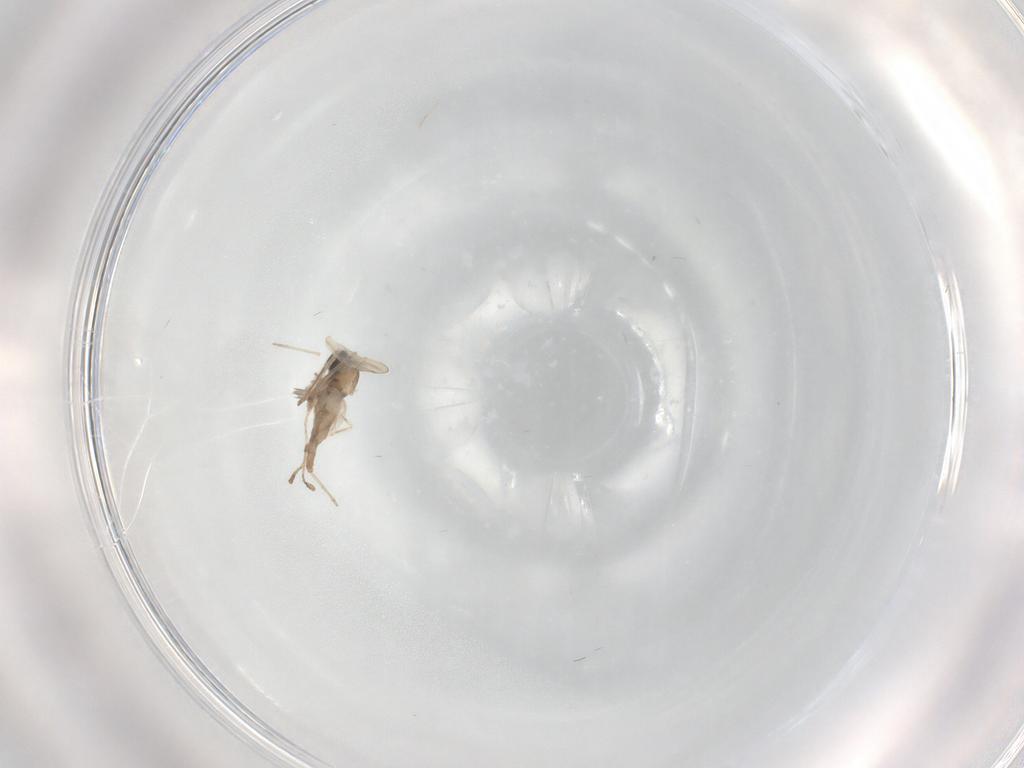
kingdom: Animalia
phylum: Arthropoda
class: Insecta
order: Diptera
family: Cecidomyiidae
